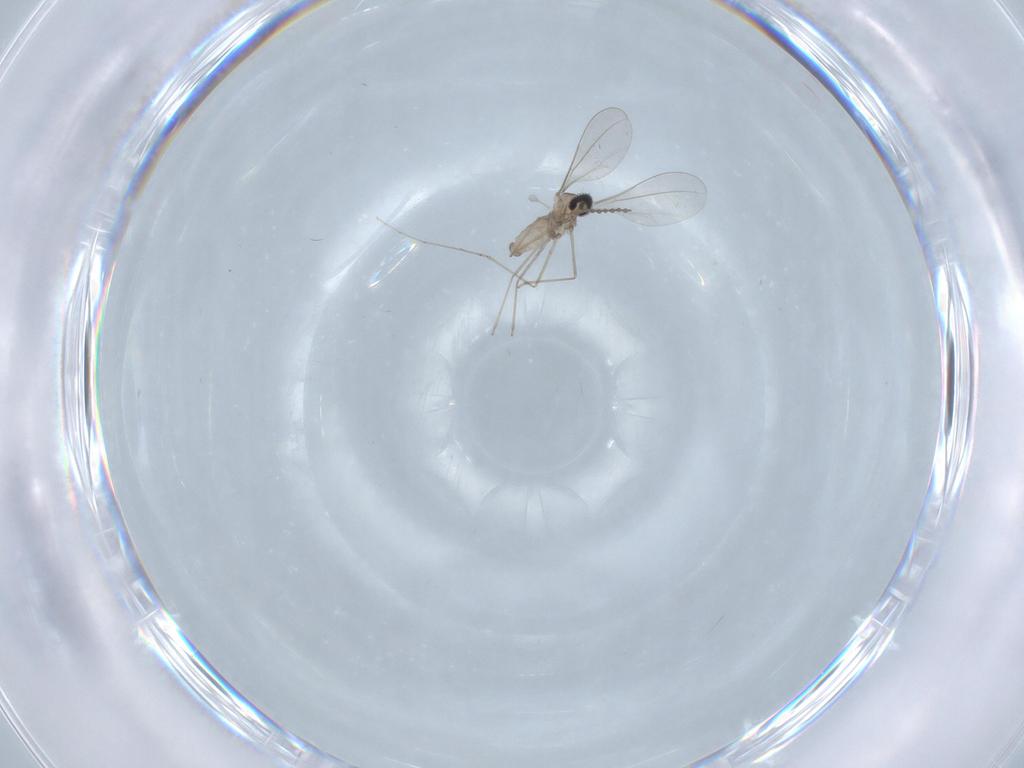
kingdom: Animalia
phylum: Arthropoda
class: Insecta
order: Diptera
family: Cecidomyiidae
